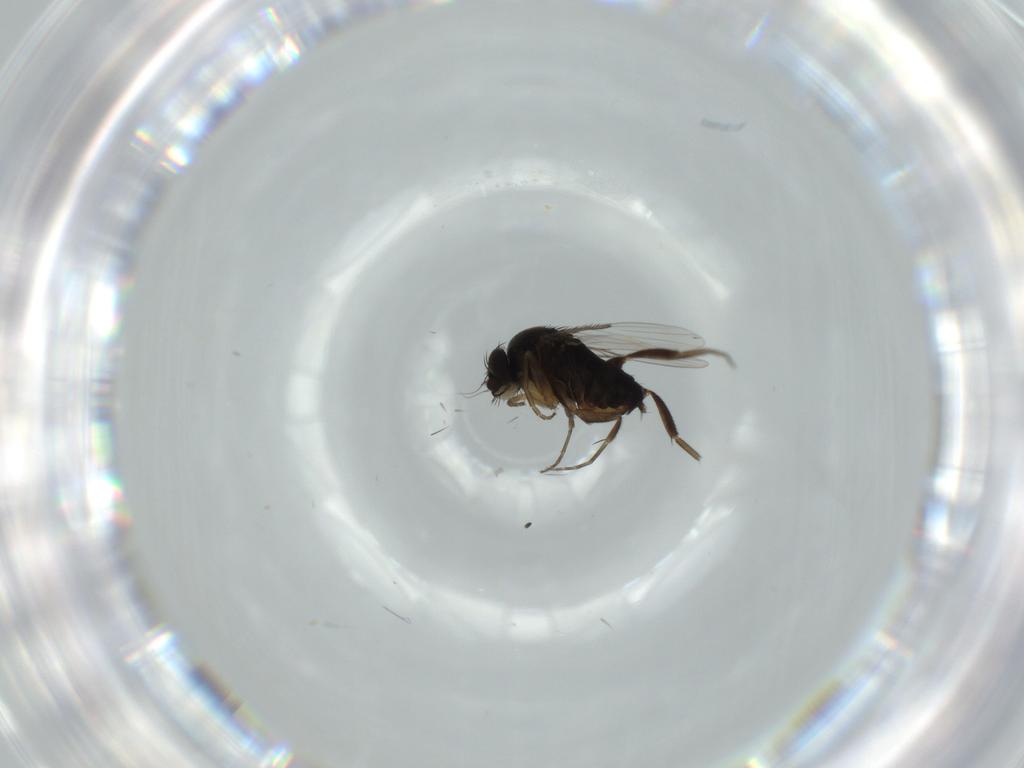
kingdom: Animalia
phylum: Arthropoda
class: Insecta
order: Diptera
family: Phoridae
